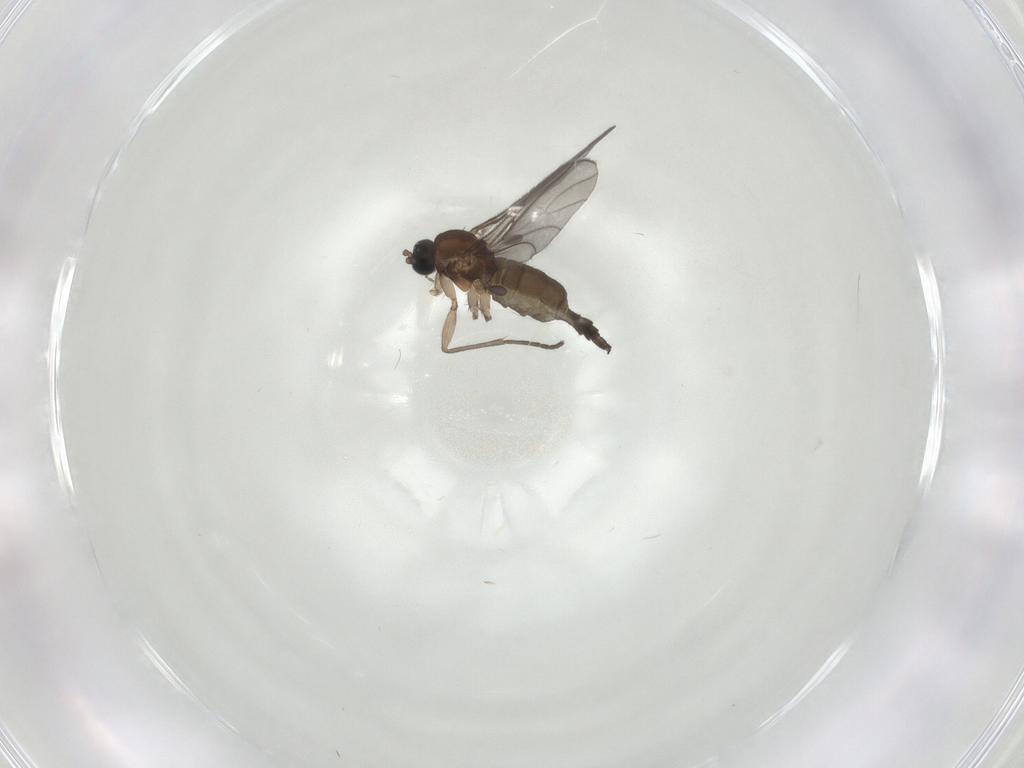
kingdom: Animalia
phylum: Arthropoda
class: Insecta
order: Diptera
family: Sciaridae
